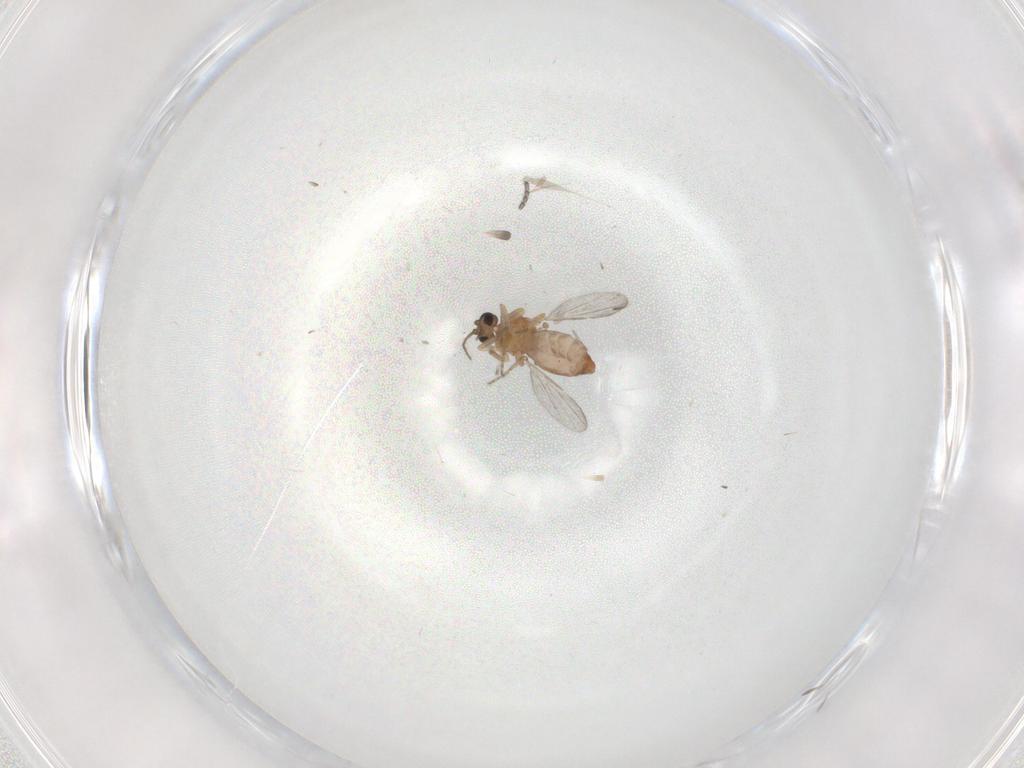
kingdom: Animalia
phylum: Arthropoda
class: Insecta
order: Diptera
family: Ceratopogonidae
